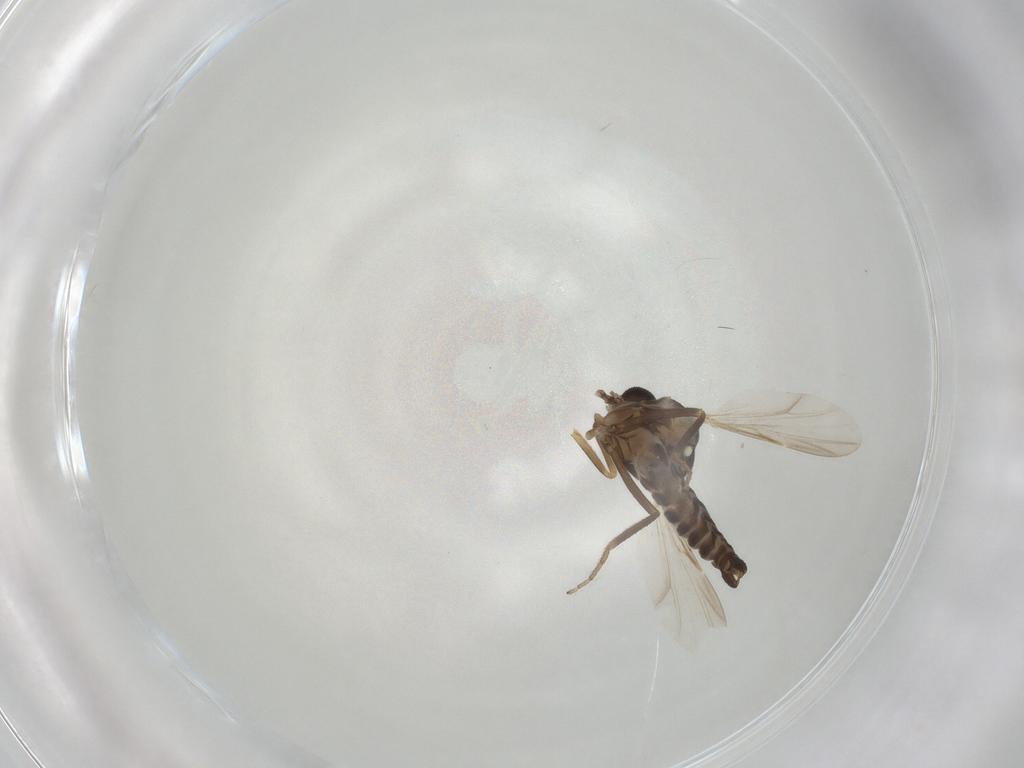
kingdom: Animalia
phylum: Arthropoda
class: Insecta
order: Diptera
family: Ceratopogonidae
